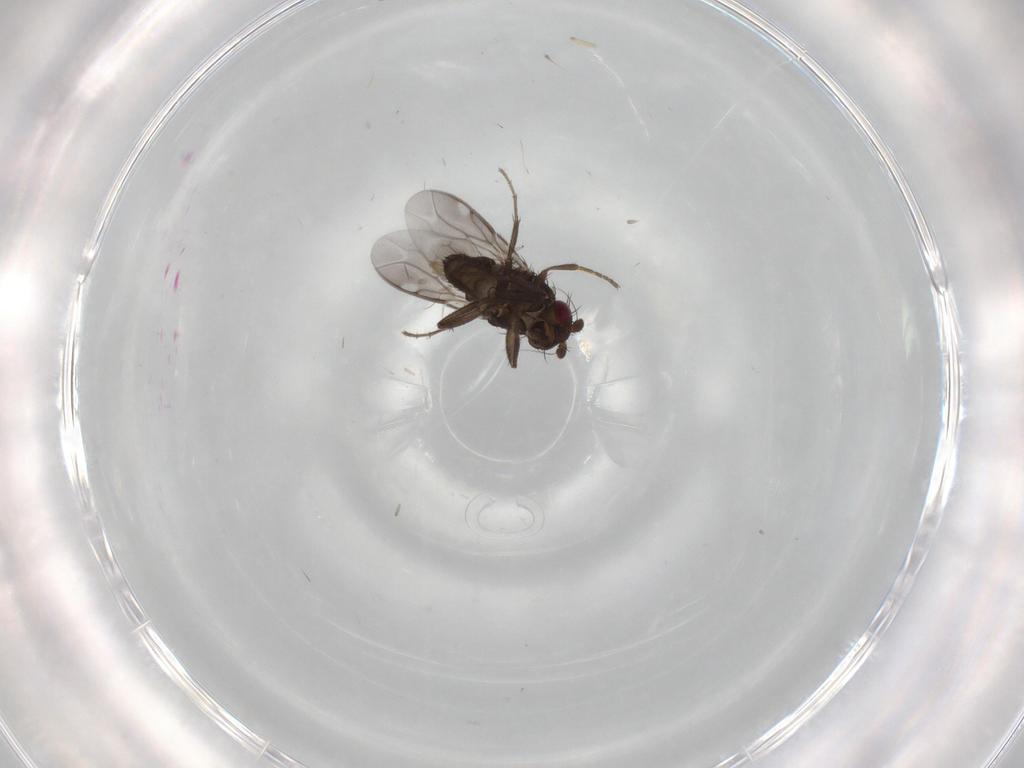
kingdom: Animalia
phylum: Arthropoda
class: Insecta
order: Diptera
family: Sphaeroceridae
